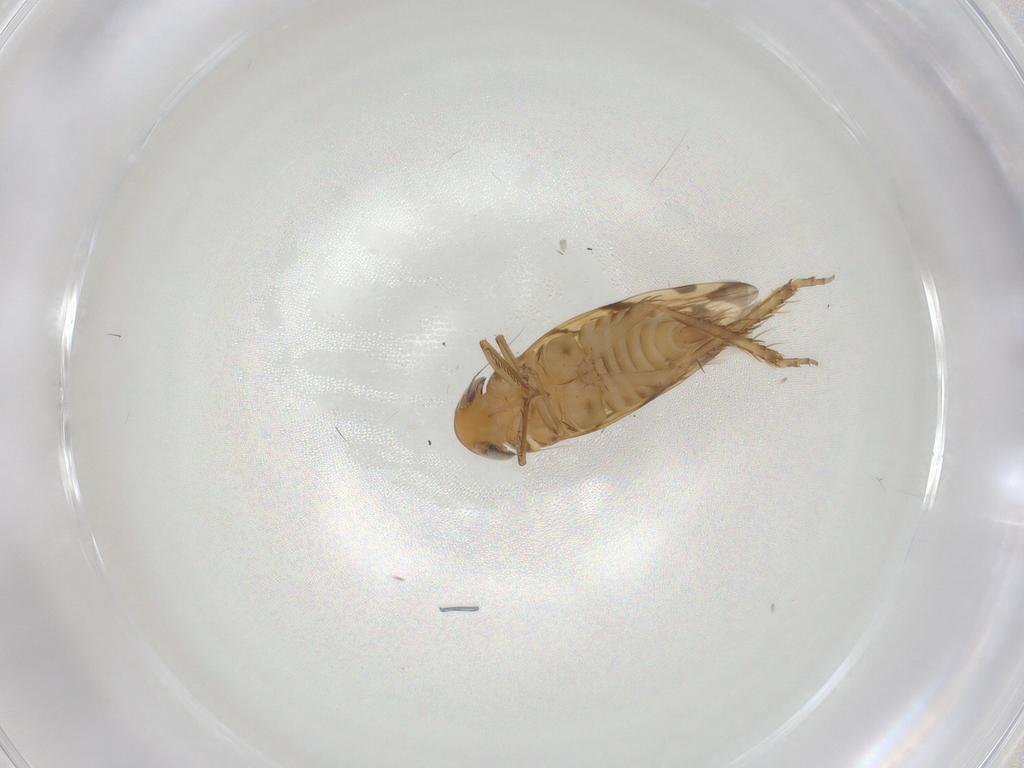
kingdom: Animalia
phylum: Arthropoda
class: Insecta
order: Hemiptera
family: Cicadellidae
